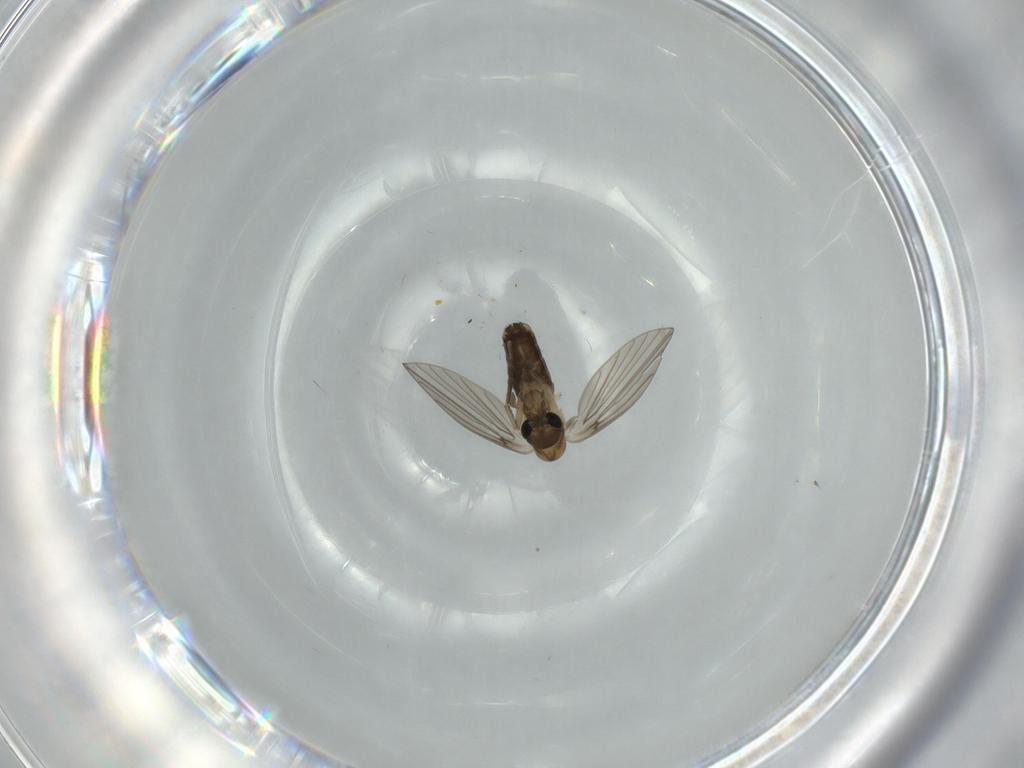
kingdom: Animalia
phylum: Arthropoda
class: Insecta
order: Diptera
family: Psychodidae
